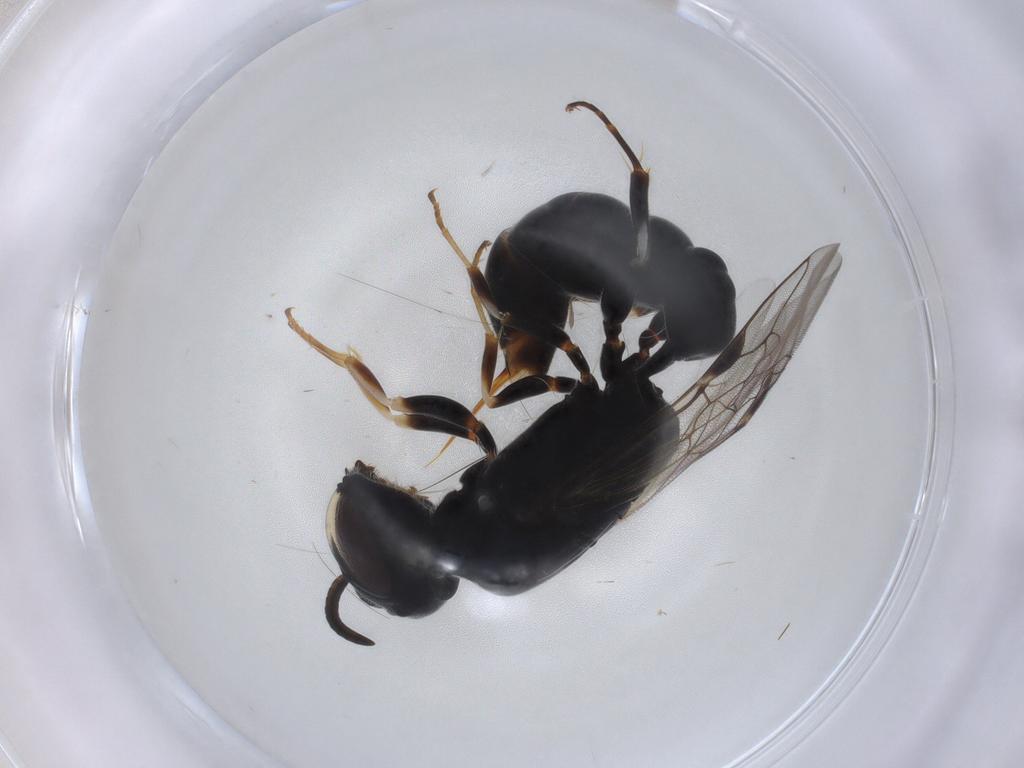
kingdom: Animalia
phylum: Arthropoda
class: Insecta
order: Hymenoptera
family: Pemphredonidae
